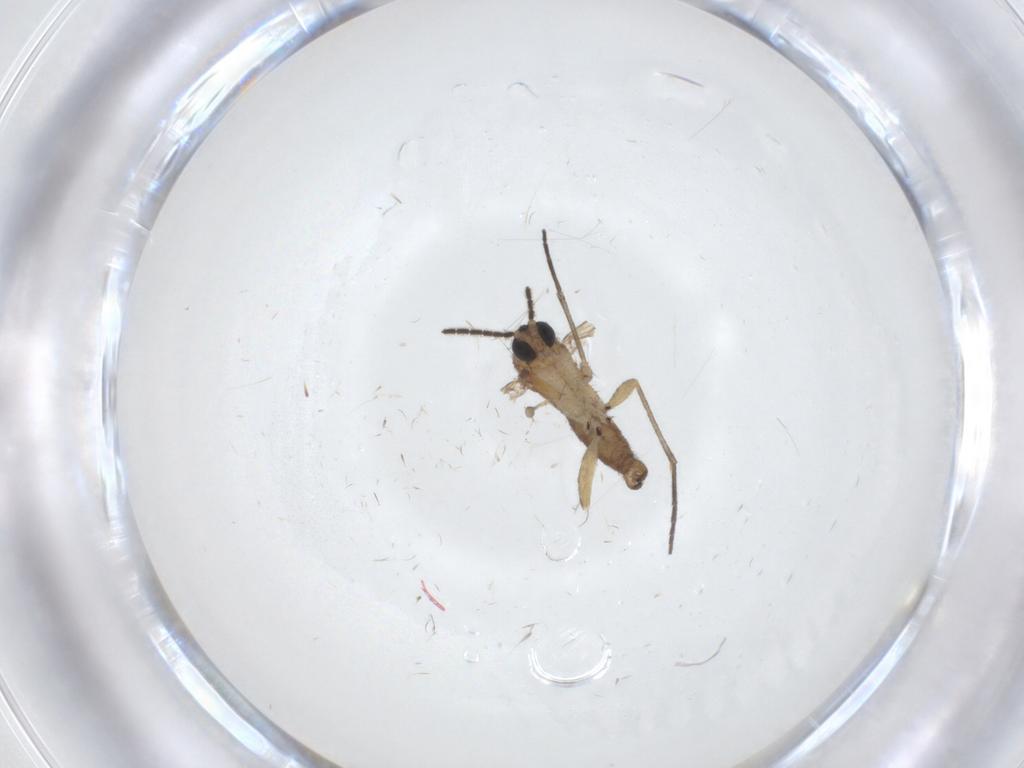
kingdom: Animalia
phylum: Arthropoda
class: Insecta
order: Diptera
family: Sciaridae
